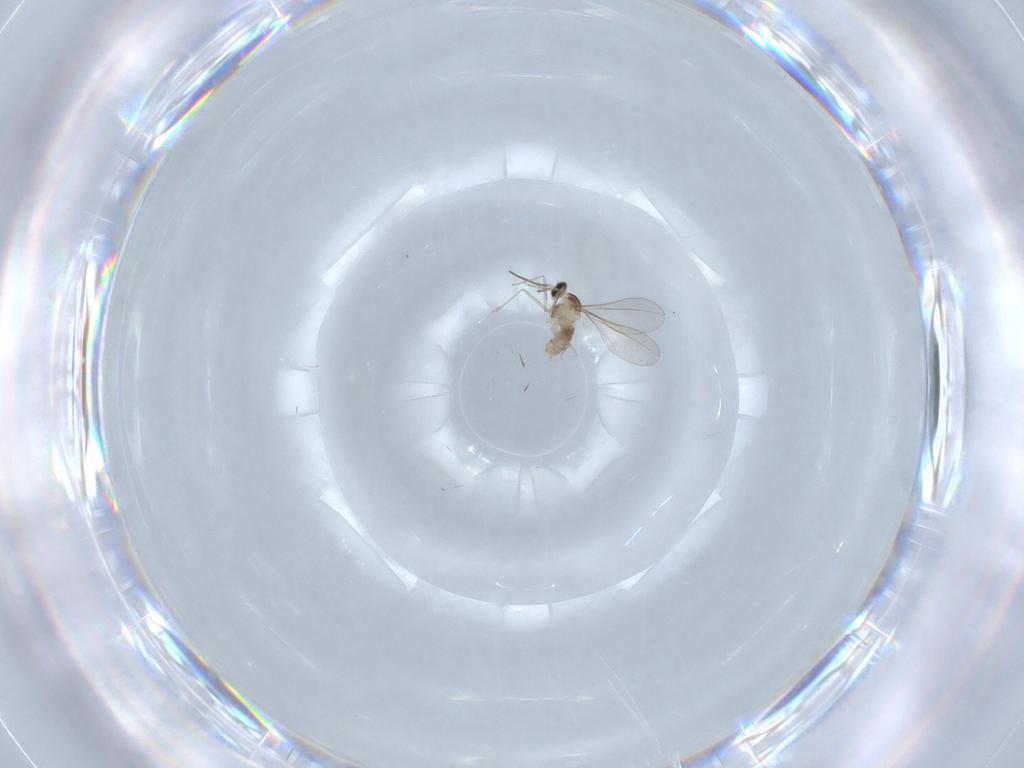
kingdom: Animalia
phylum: Arthropoda
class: Insecta
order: Diptera
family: Cecidomyiidae
